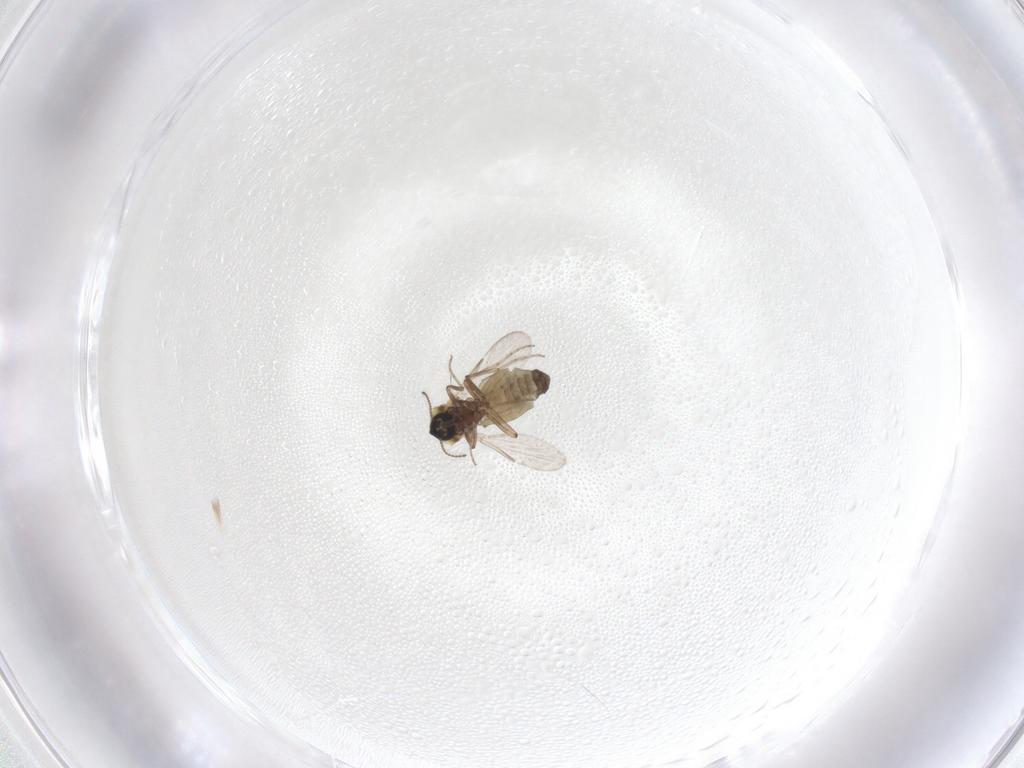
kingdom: Animalia
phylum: Arthropoda
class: Insecta
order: Diptera
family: Ceratopogonidae
